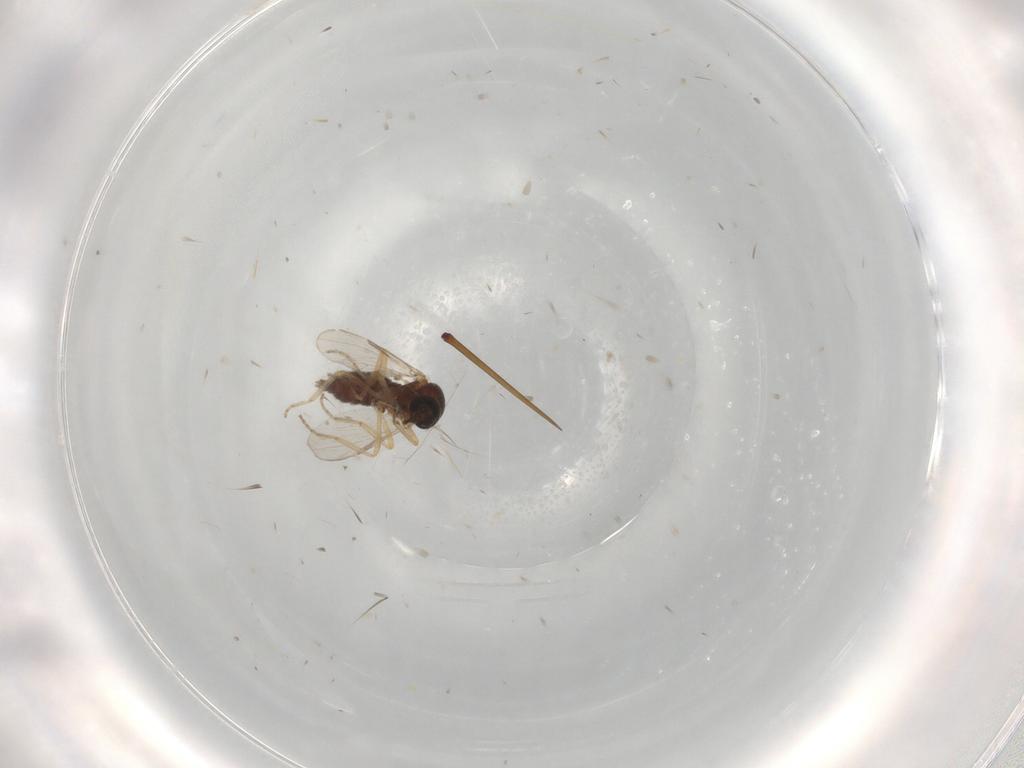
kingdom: Animalia
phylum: Arthropoda
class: Insecta
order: Diptera
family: Ceratopogonidae
